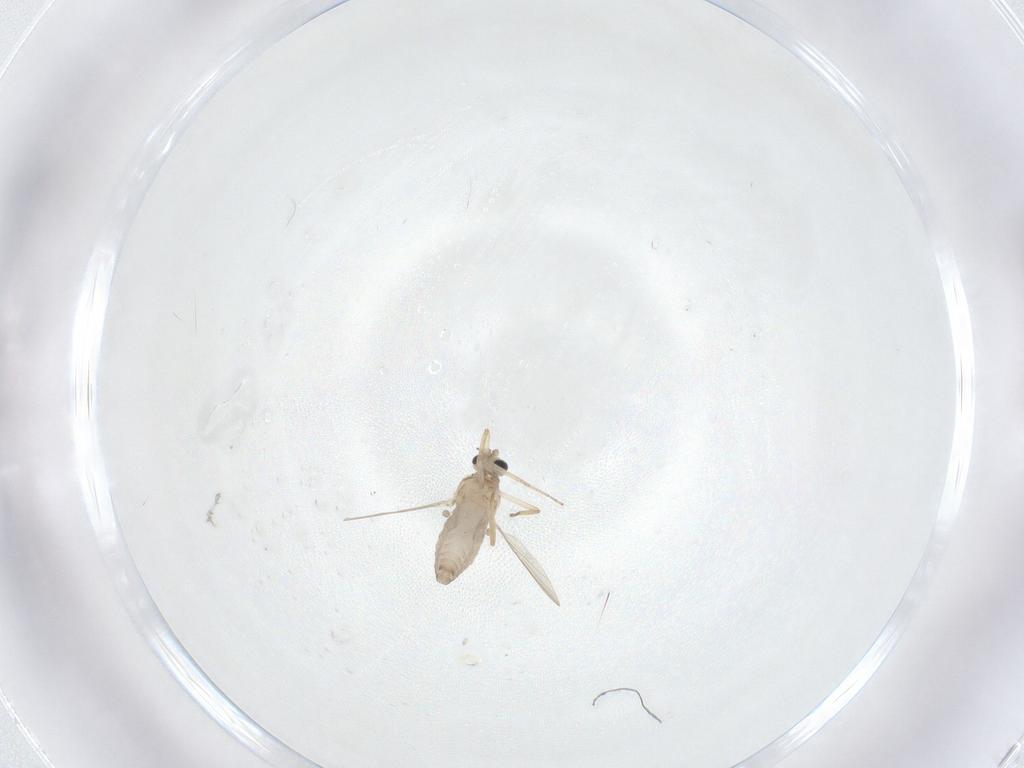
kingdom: Animalia
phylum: Arthropoda
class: Insecta
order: Diptera
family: Ceratopogonidae
